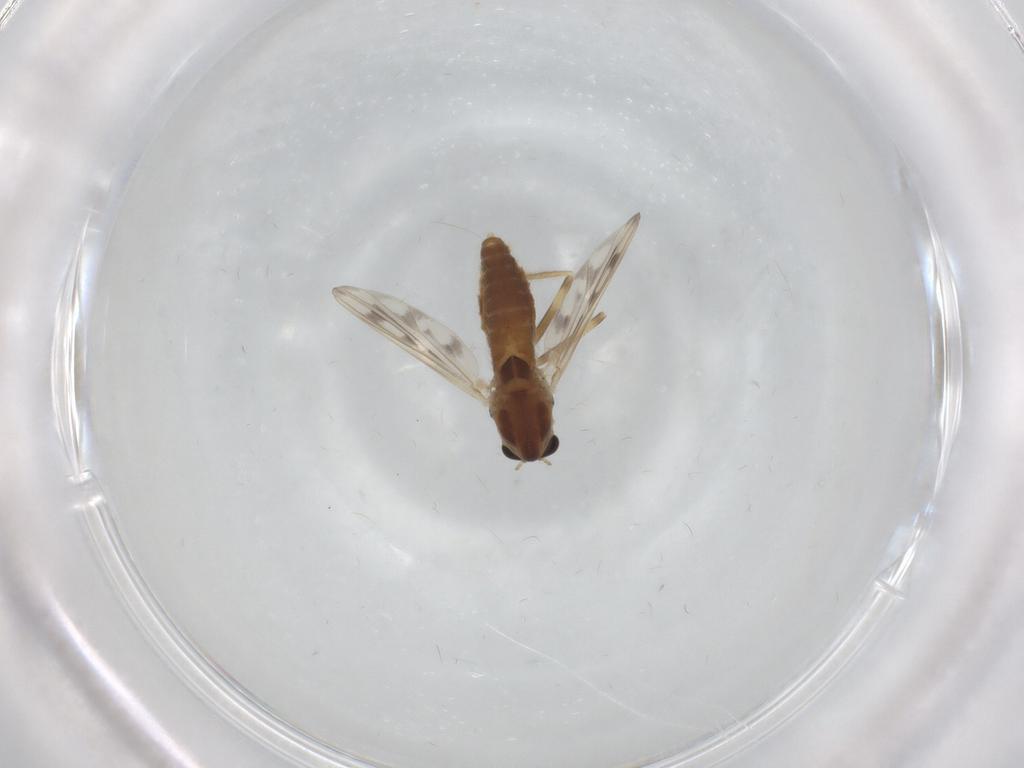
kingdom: Animalia
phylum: Arthropoda
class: Insecta
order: Diptera
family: Chironomidae
